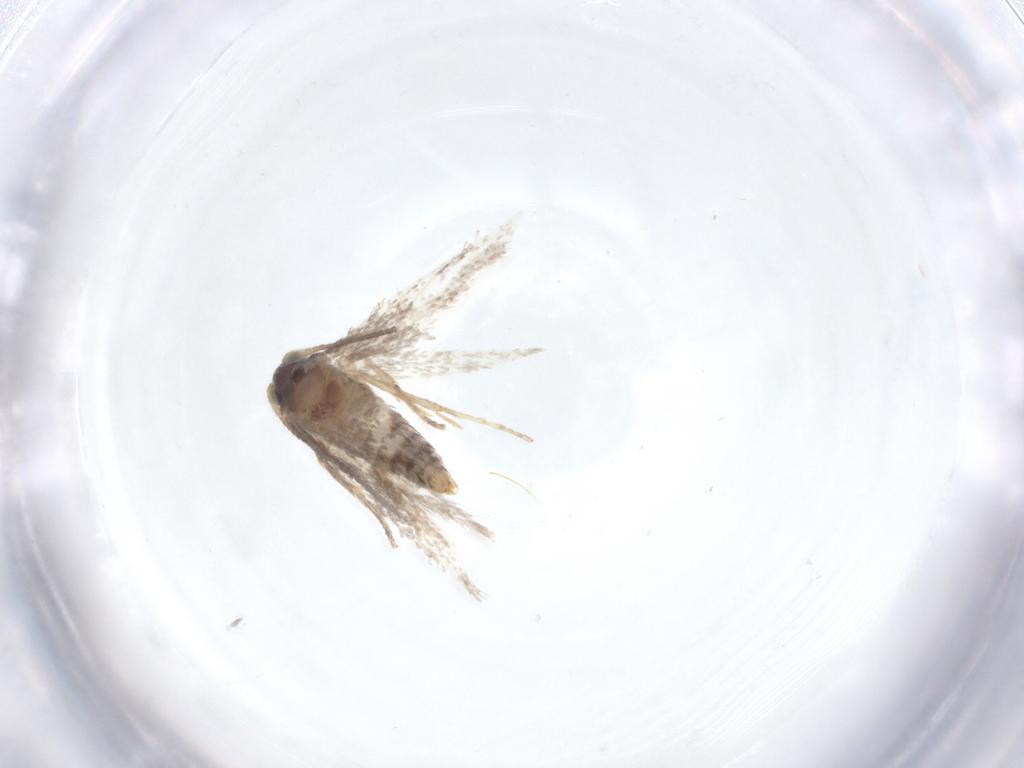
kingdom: Animalia
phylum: Arthropoda
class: Insecta
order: Lepidoptera
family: Nepticulidae
